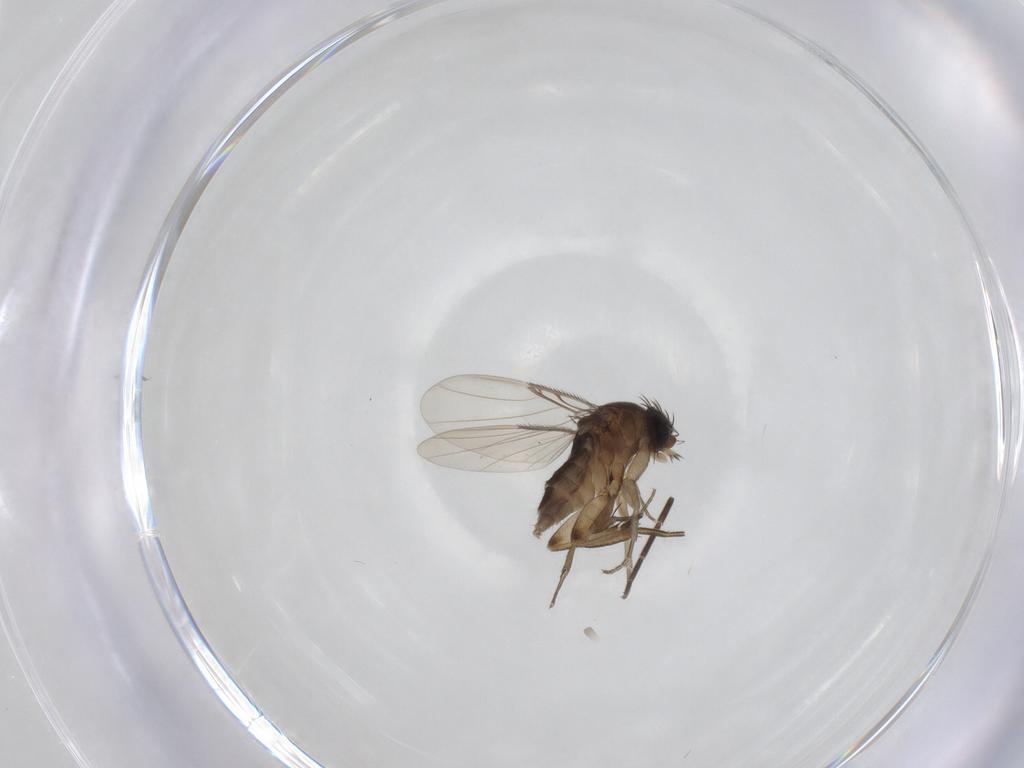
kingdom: Animalia
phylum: Arthropoda
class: Insecta
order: Diptera
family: Mycetophilidae
